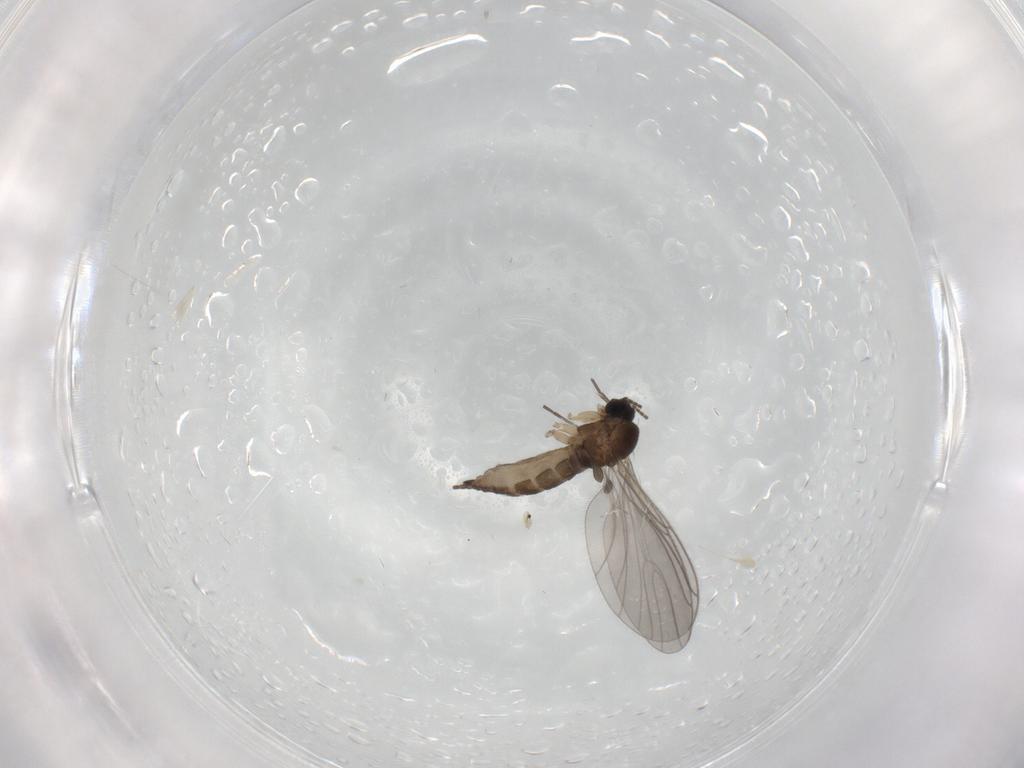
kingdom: Animalia
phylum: Arthropoda
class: Insecta
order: Diptera
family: Sciaridae
